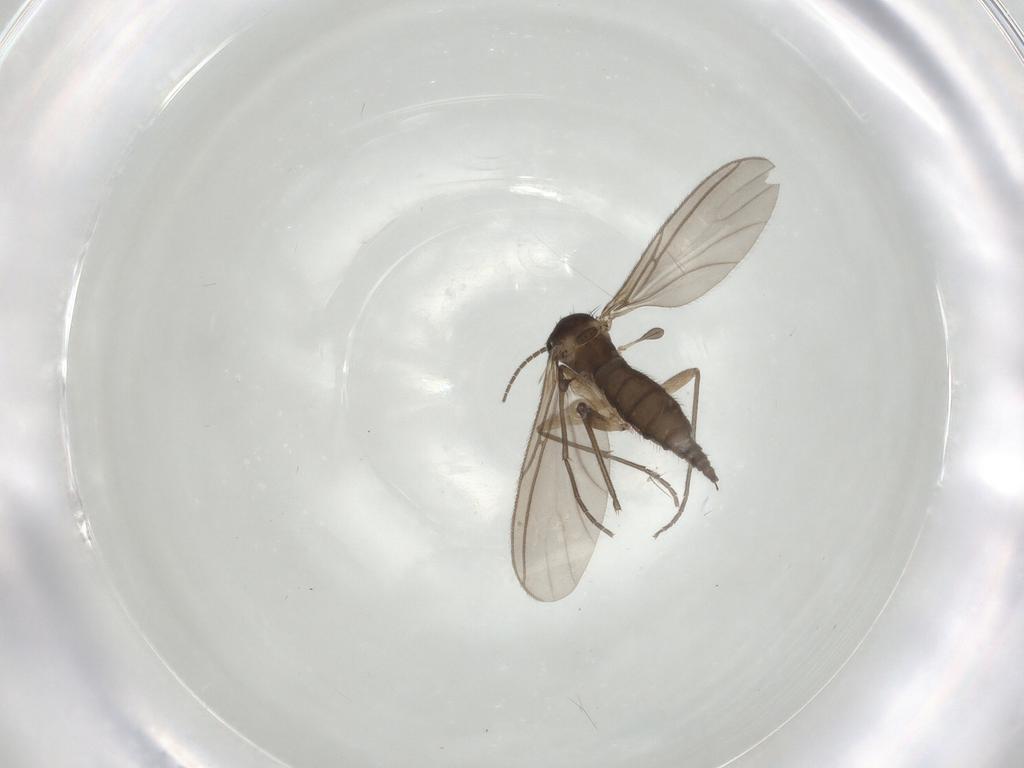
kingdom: Animalia
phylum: Arthropoda
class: Insecta
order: Diptera
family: Sciaridae
